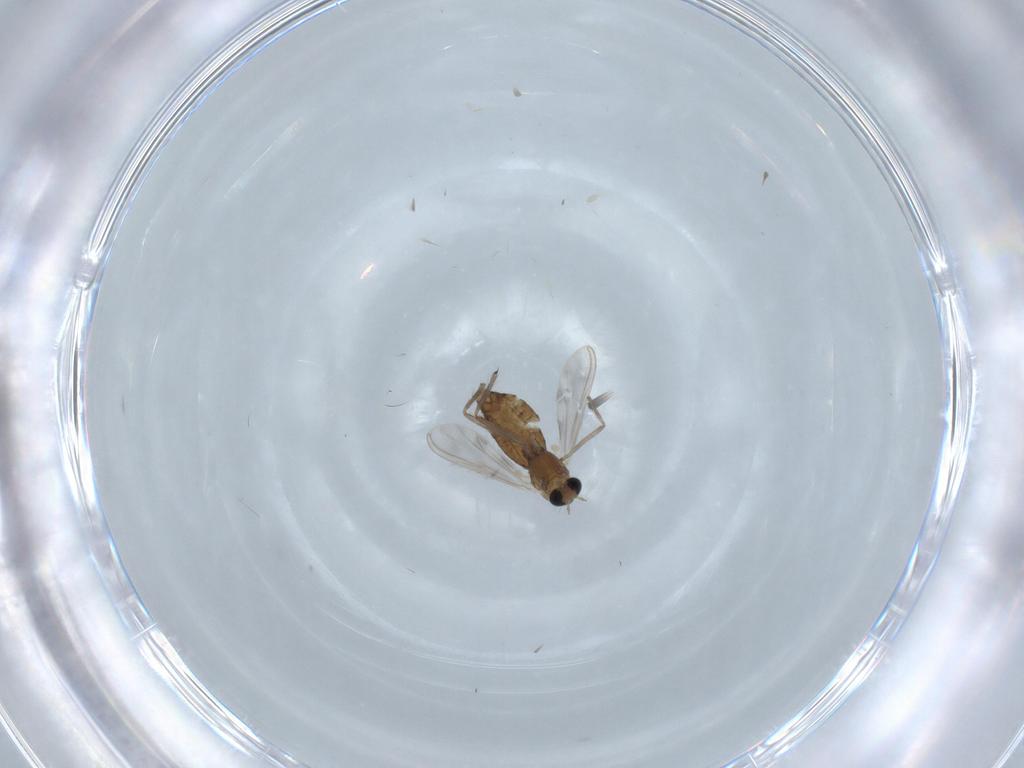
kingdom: Animalia
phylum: Arthropoda
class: Insecta
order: Diptera
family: Chironomidae
